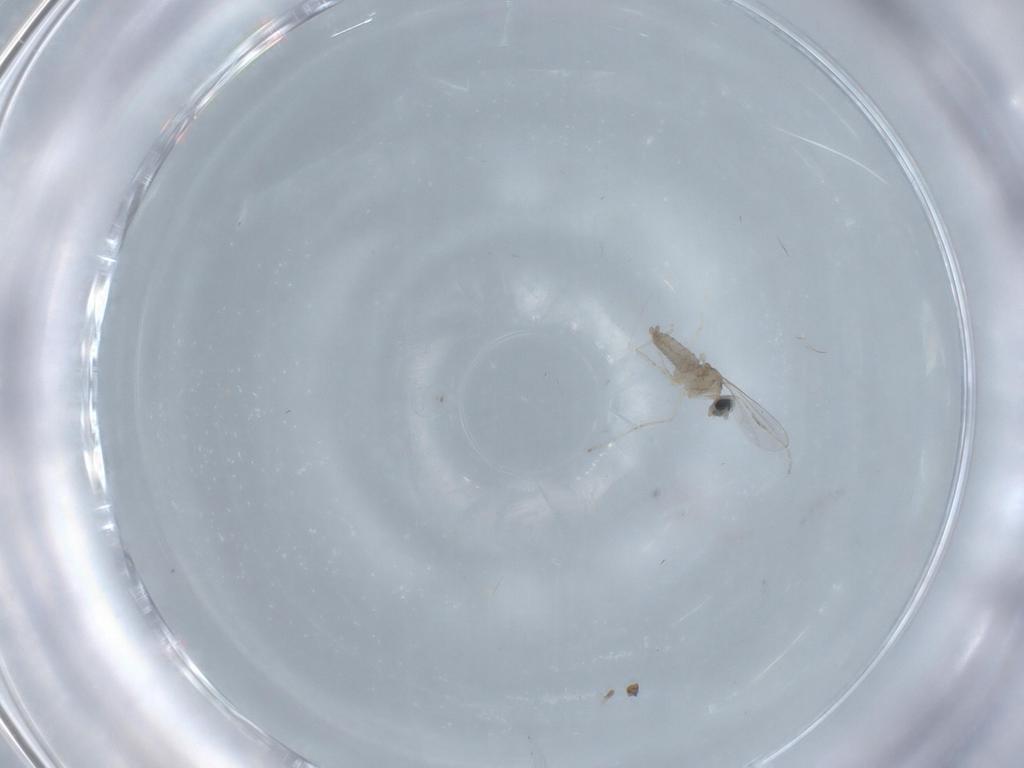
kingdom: Animalia
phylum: Arthropoda
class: Insecta
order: Diptera
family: Cecidomyiidae
